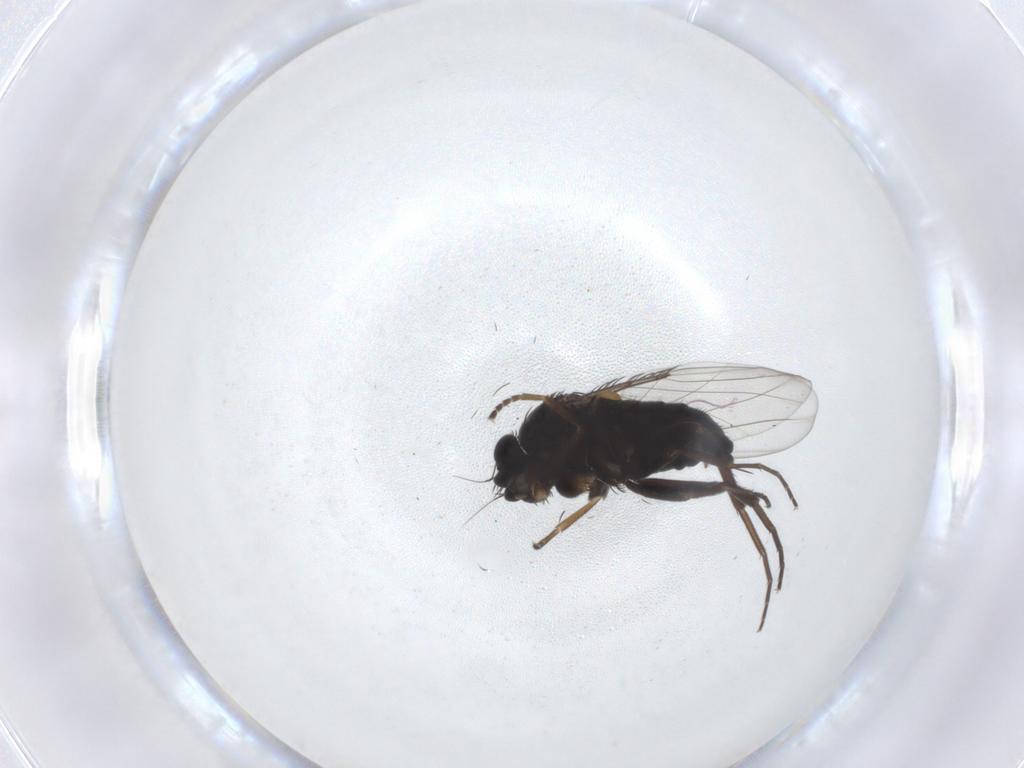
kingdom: Animalia
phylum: Arthropoda
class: Insecta
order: Diptera
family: Phoridae
